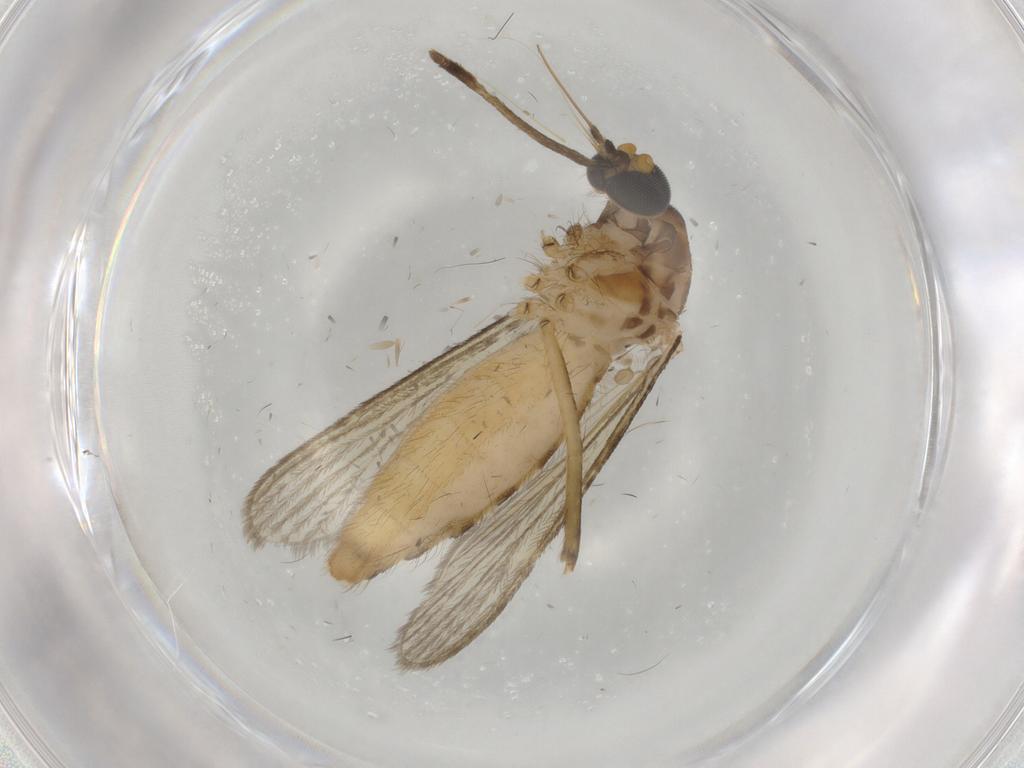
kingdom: Animalia
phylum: Arthropoda
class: Insecta
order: Diptera
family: Culicidae
